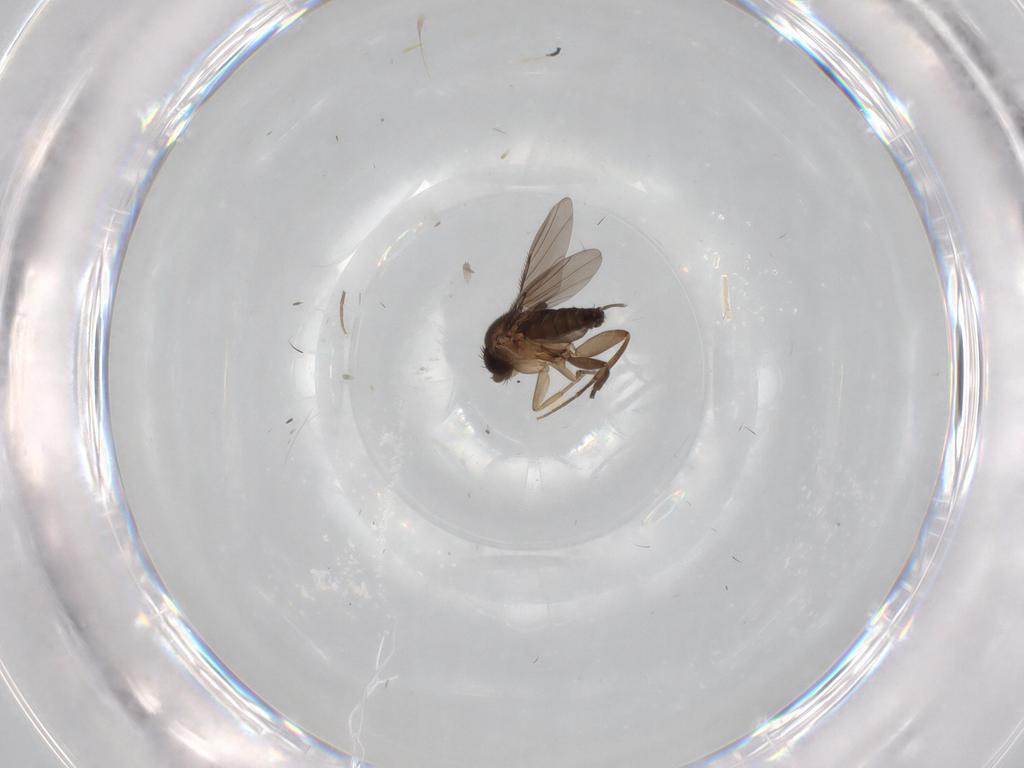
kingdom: Animalia
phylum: Arthropoda
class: Insecta
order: Diptera
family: Phoridae
